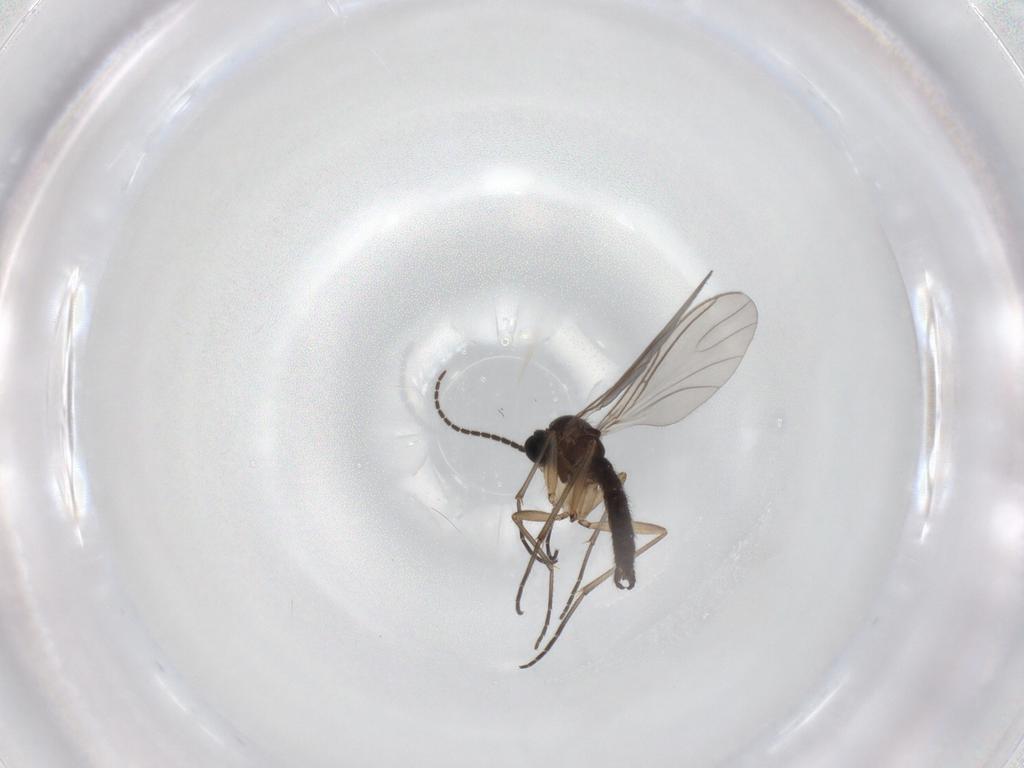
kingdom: Animalia
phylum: Arthropoda
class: Insecta
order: Diptera
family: Sciaridae
